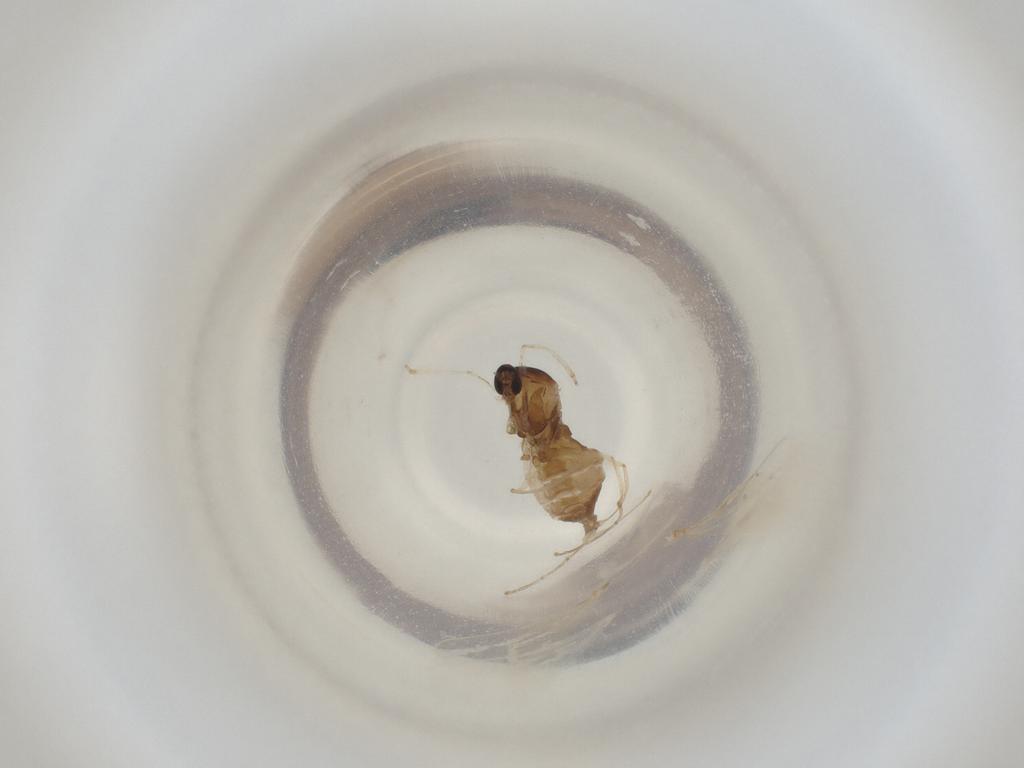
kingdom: Animalia
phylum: Arthropoda
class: Insecta
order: Diptera
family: Cecidomyiidae
